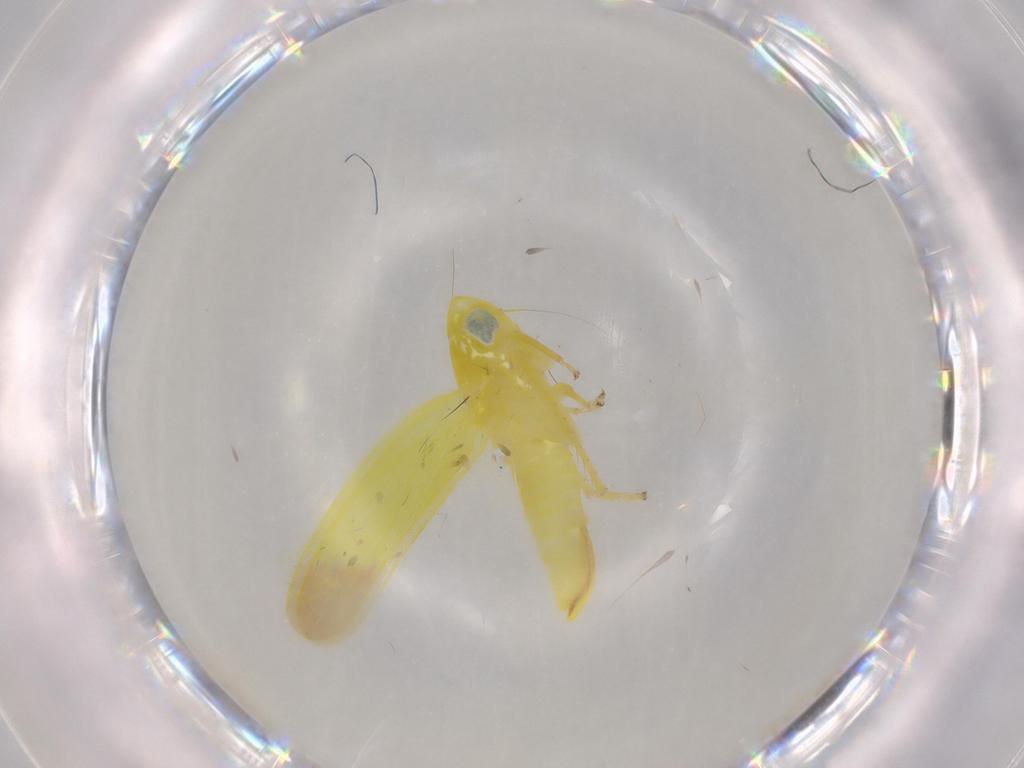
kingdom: Animalia
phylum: Arthropoda
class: Insecta
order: Hemiptera
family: Cicadellidae
